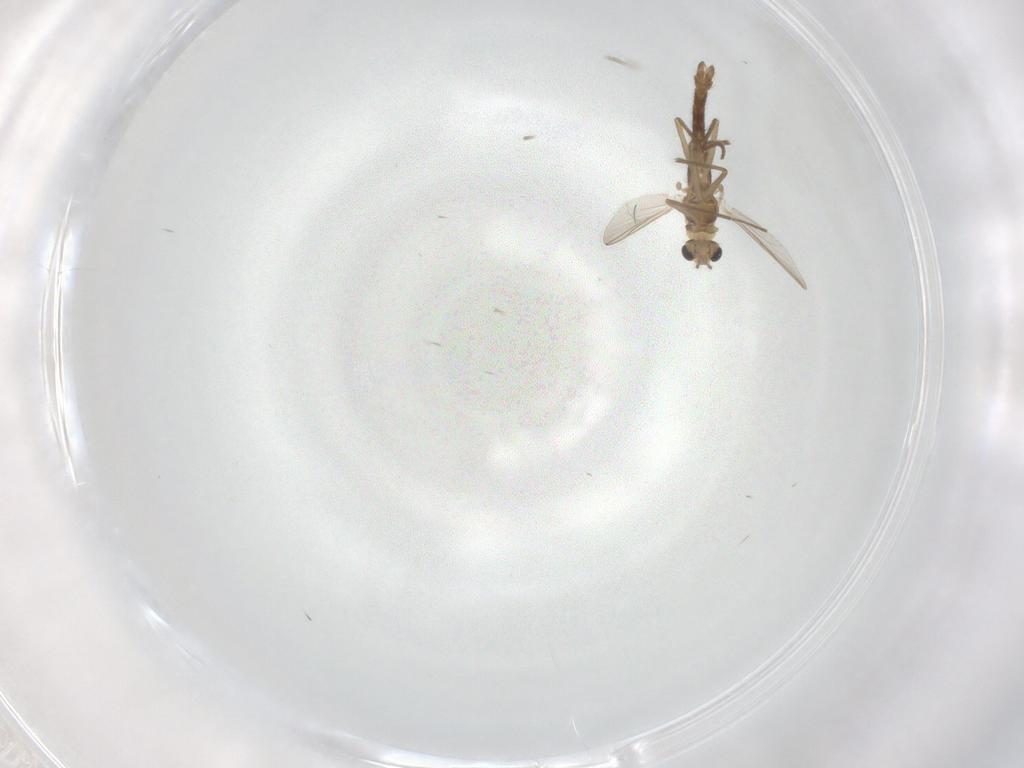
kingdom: Animalia
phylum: Arthropoda
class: Insecta
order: Diptera
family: Chironomidae
